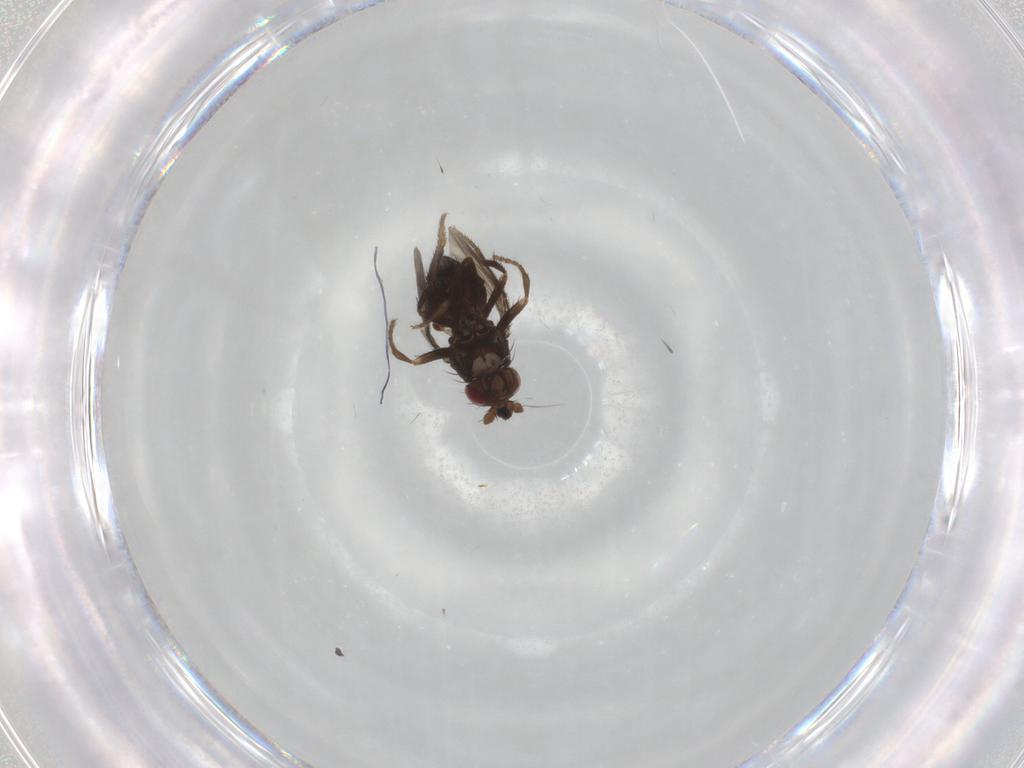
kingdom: Animalia
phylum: Arthropoda
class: Insecta
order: Diptera
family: Sphaeroceridae
